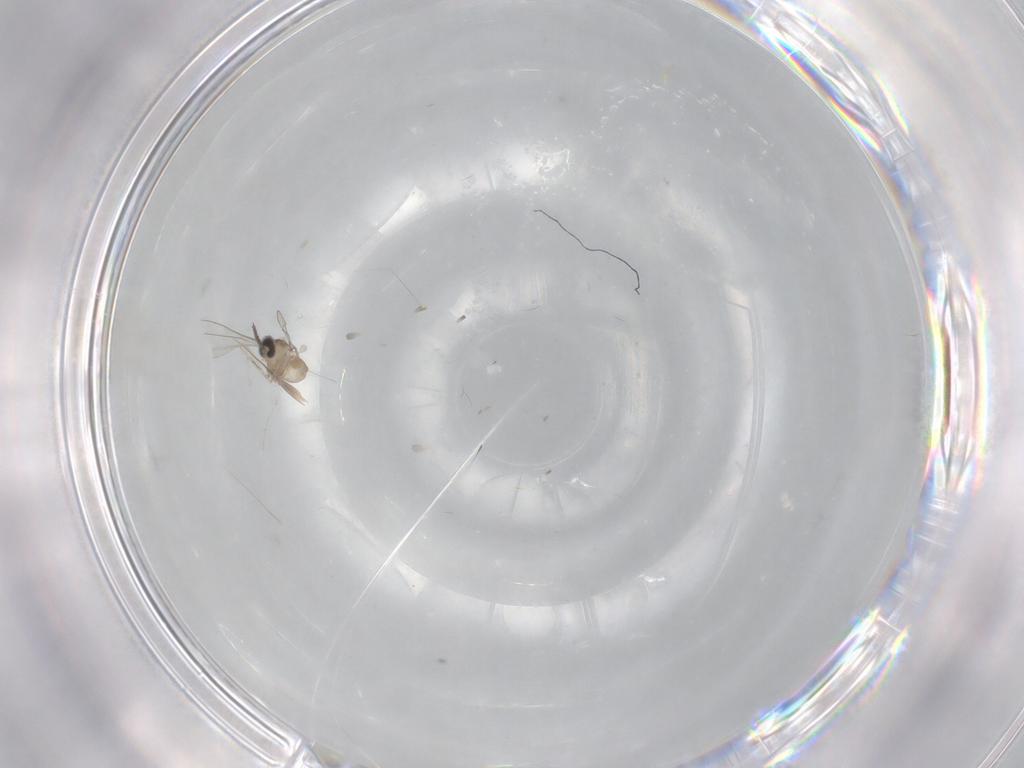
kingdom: Animalia
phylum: Arthropoda
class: Insecta
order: Diptera
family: Cecidomyiidae
